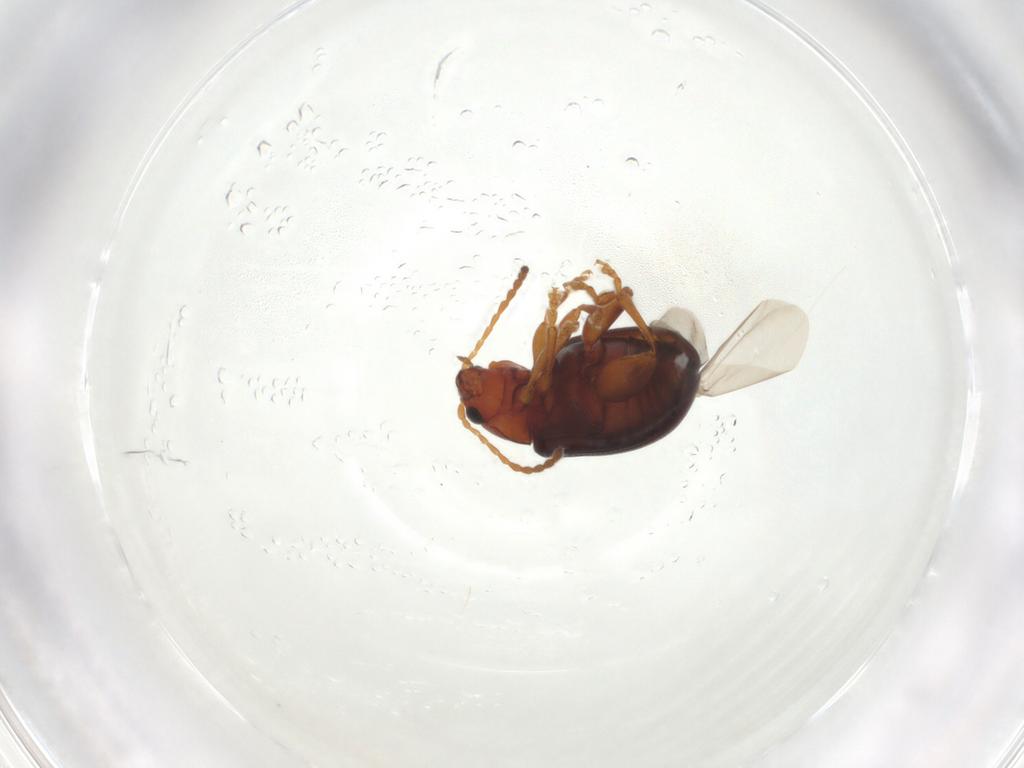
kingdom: Animalia
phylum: Arthropoda
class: Insecta
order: Coleoptera
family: Chrysomelidae
